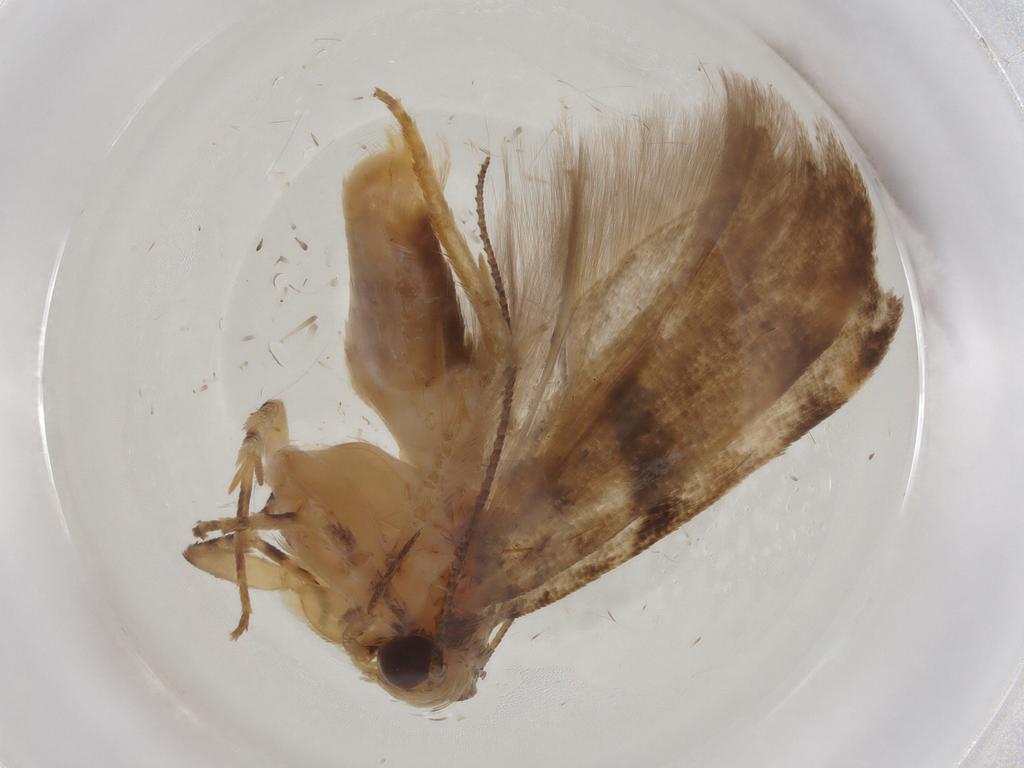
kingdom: Animalia
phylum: Arthropoda
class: Insecta
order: Lepidoptera
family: Gelechiidae
